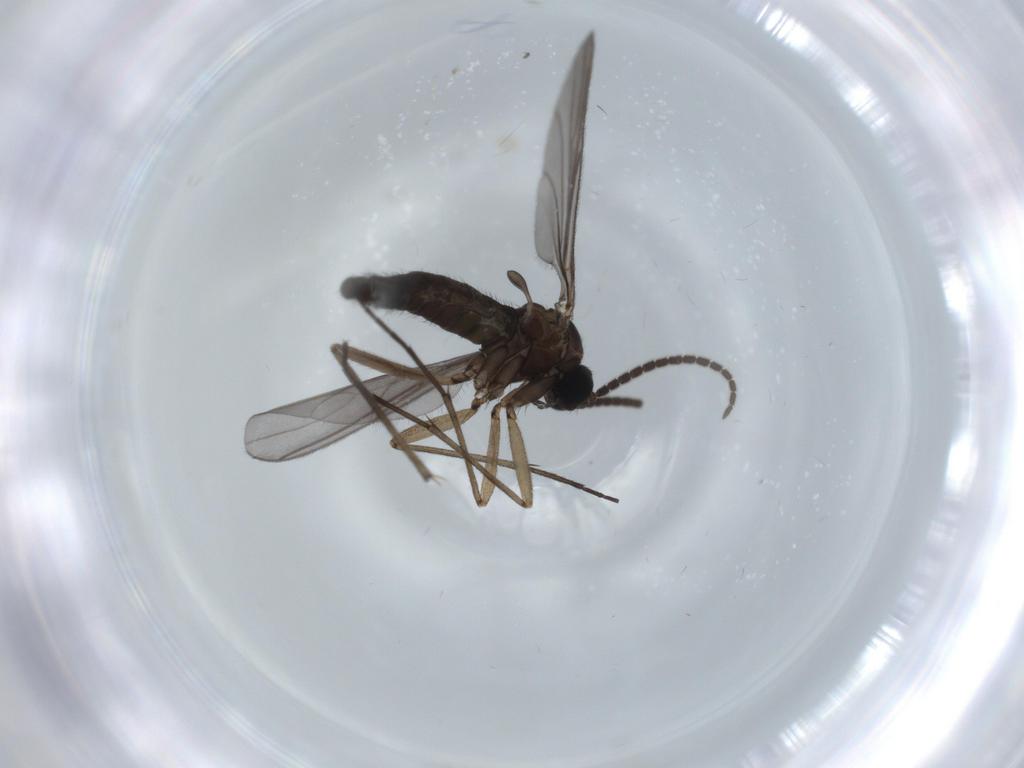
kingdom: Animalia
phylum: Arthropoda
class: Insecta
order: Diptera
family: Sciaridae
